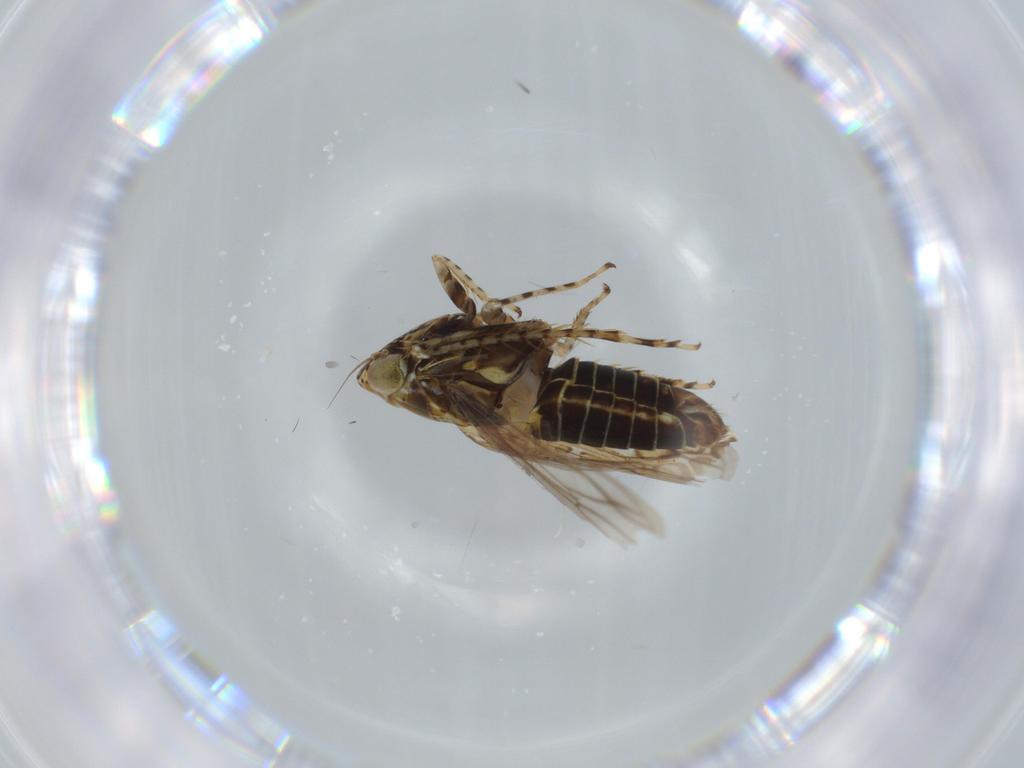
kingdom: Animalia
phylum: Arthropoda
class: Insecta
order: Hemiptera
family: Cicadellidae
